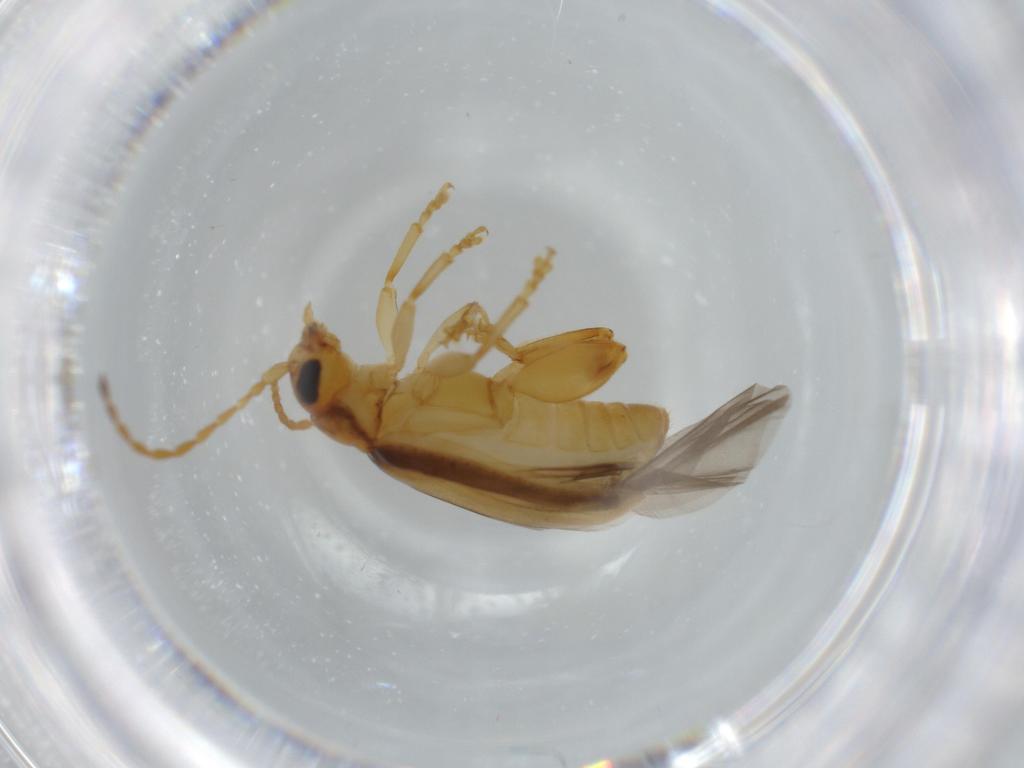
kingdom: Animalia
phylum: Arthropoda
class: Insecta
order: Coleoptera
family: Chrysomelidae
